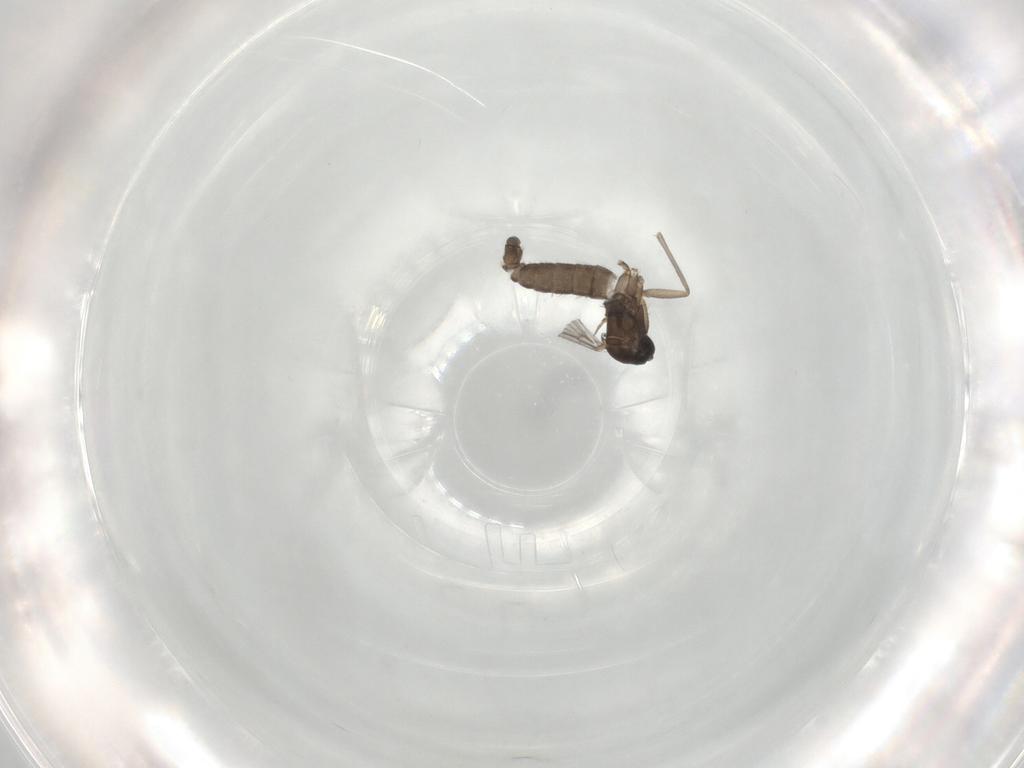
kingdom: Animalia
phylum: Arthropoda
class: Insecta
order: Diptera
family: Sciaridae
